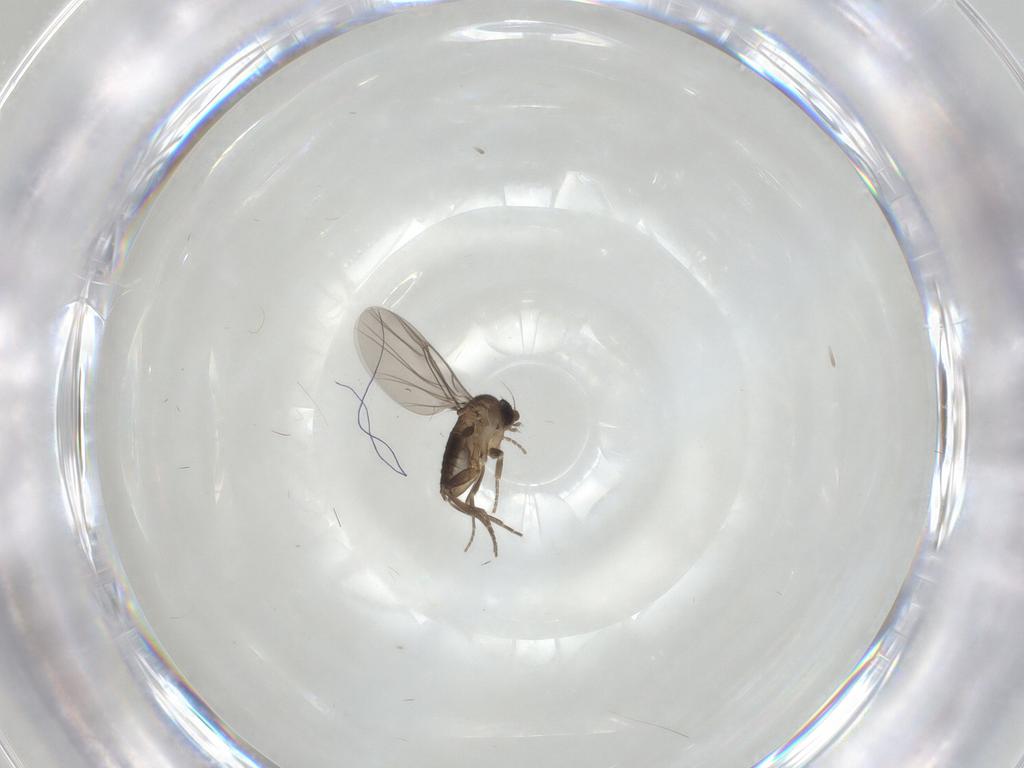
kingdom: Animalia
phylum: Arthropoda
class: Insecta
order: Diptera
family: Phoridae
